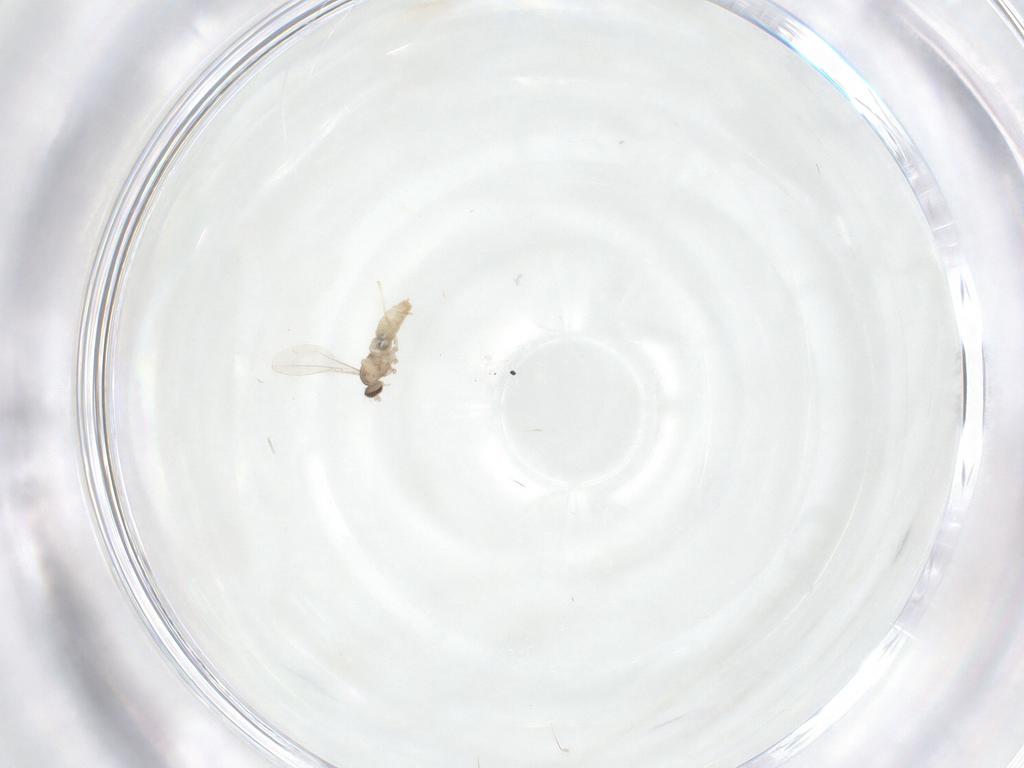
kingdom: Animalia
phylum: Arthropoda
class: Insecta
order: Diptera
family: Cecidomyiidae
